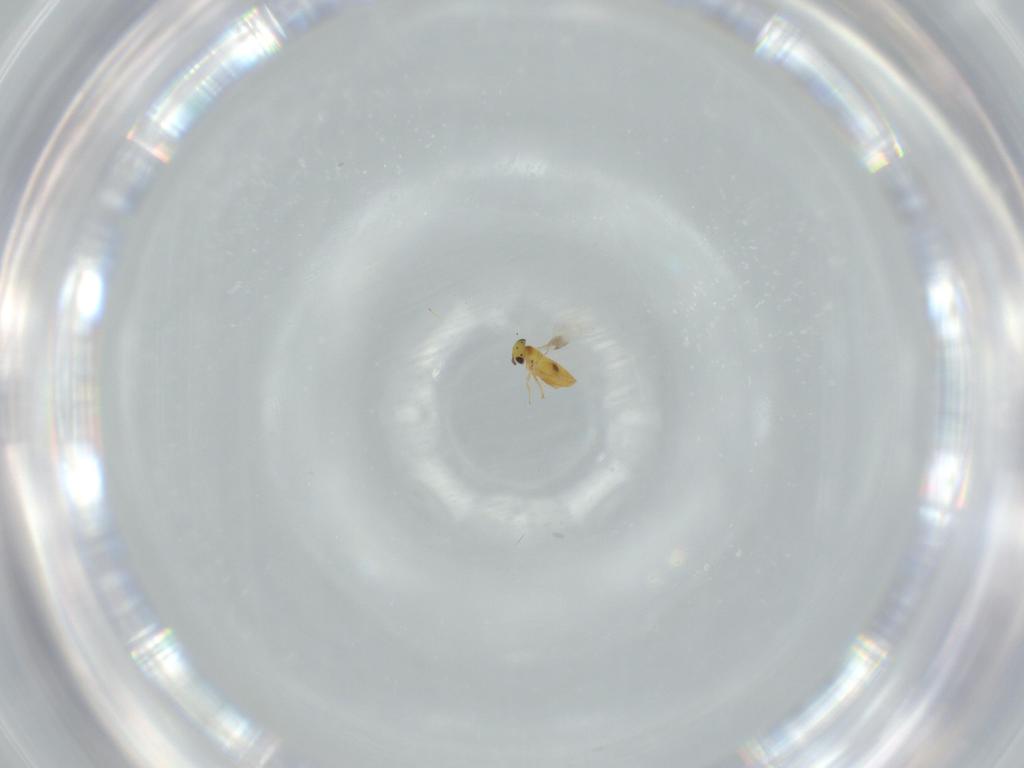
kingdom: Animalia
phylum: Arthropoda
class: Insecta
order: Hymenoptera
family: Signiphoridae
